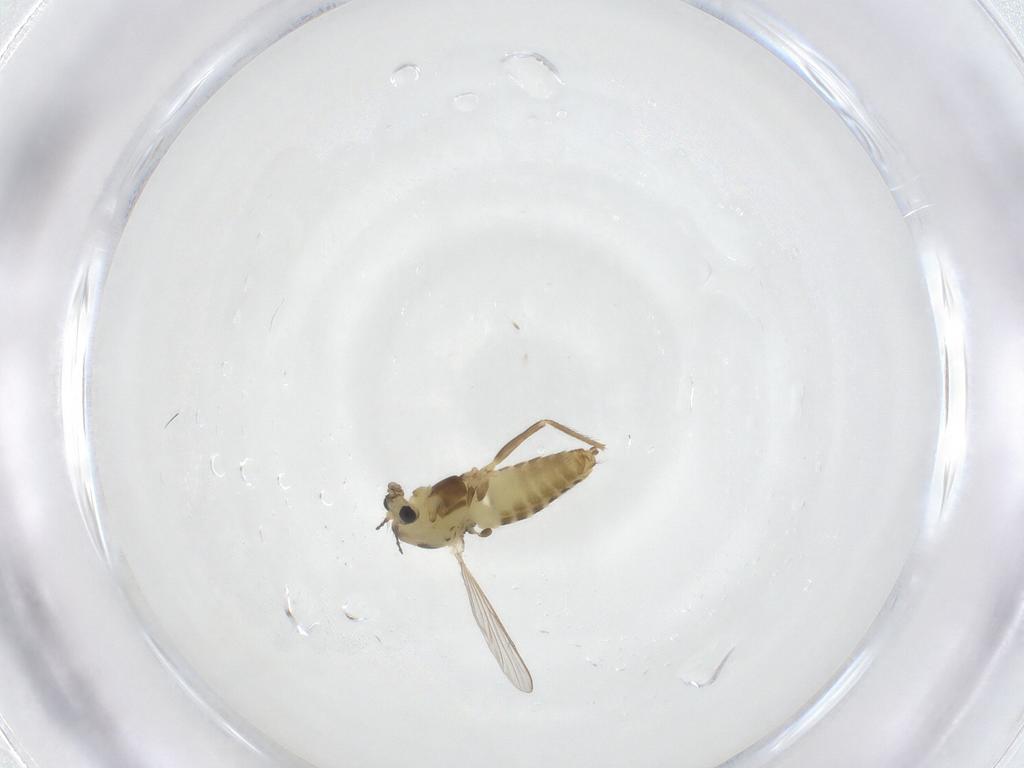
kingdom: Animalia
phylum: Arthropoda
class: Insecta
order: Diptera
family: Chironomidae
